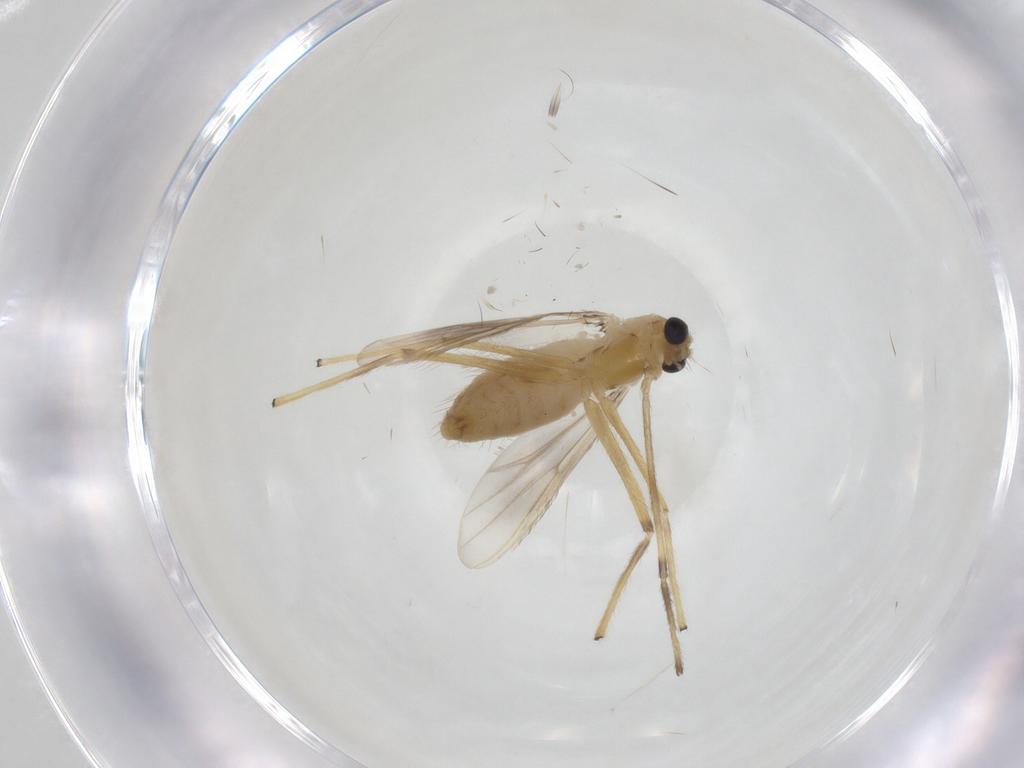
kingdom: Animalia
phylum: Arthropoda
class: Insecta
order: Diptera
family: Chironomidae
